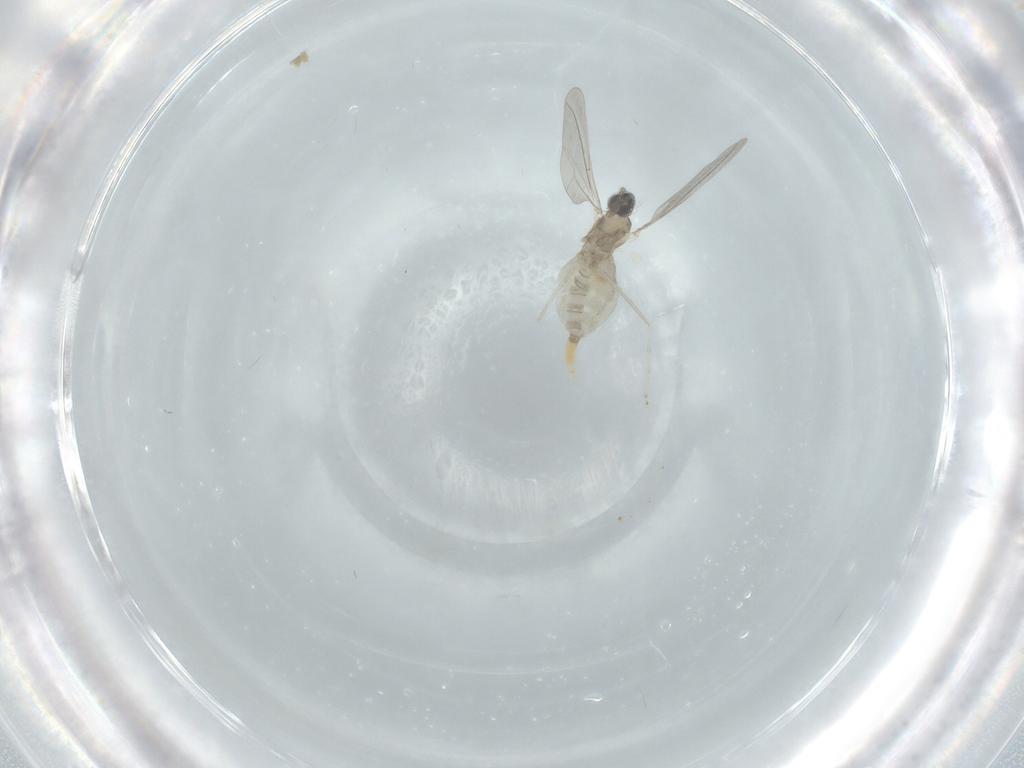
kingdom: Animalia
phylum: Arthropoda
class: Insecta
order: Diptera
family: Cecidomyiidae
